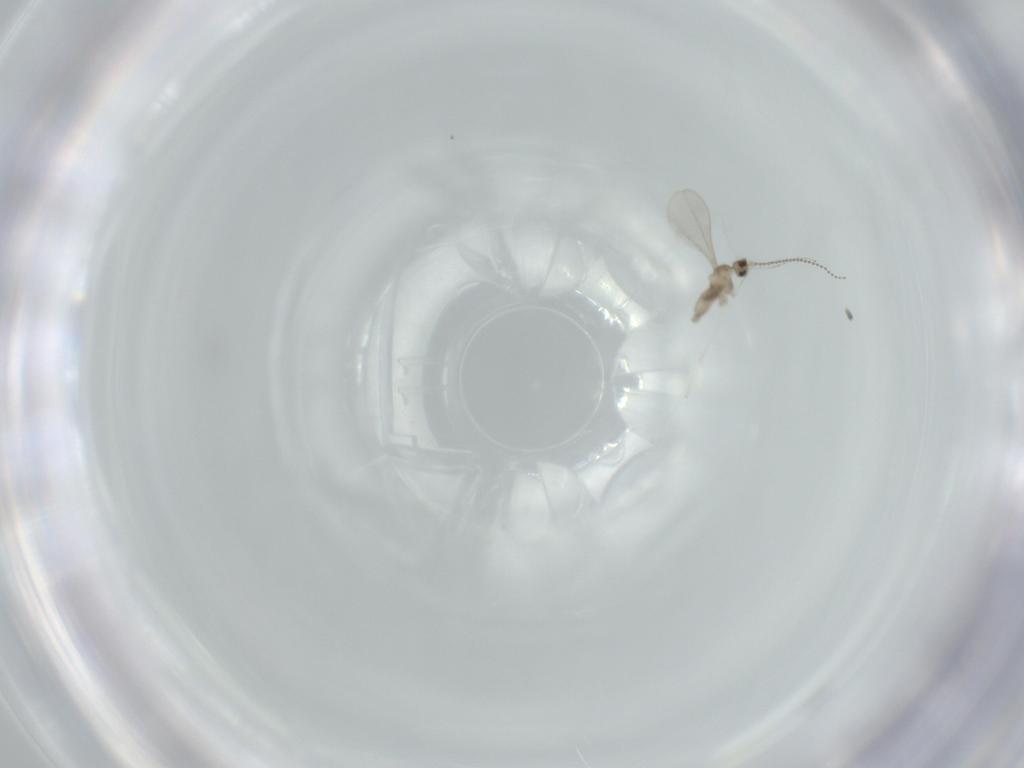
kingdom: Animalia
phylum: Arthropoda
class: Insecta
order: Diptera
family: Cecidomyiidae
